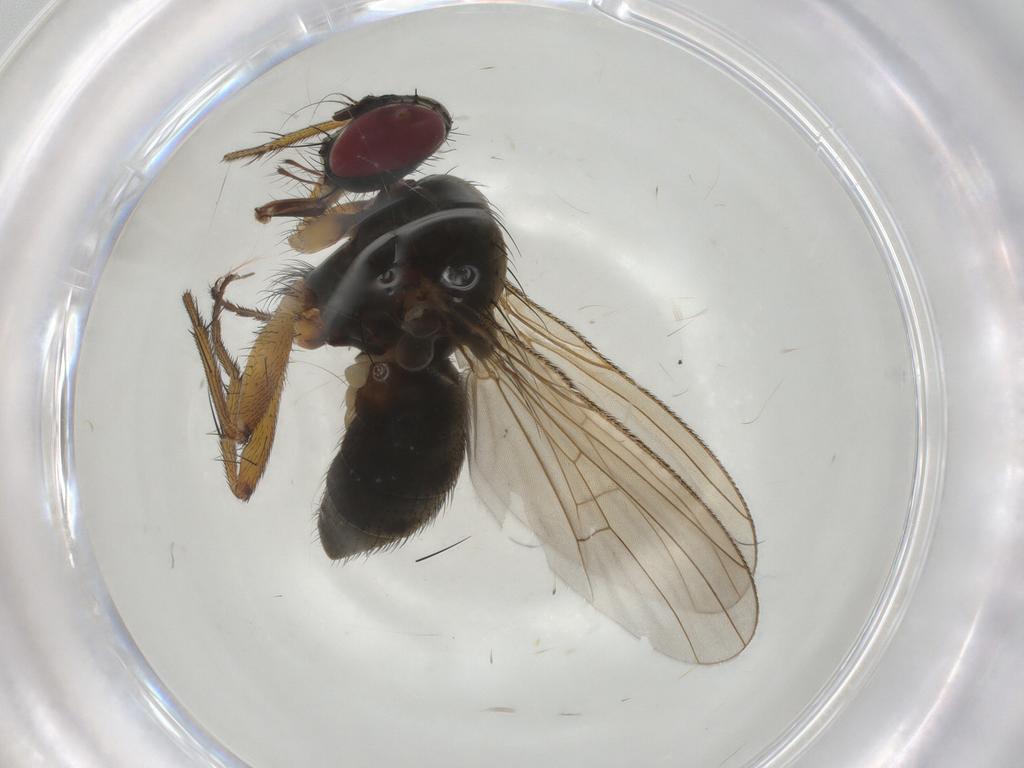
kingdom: Animalia
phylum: Arthropoda
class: Insecta
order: Diptera
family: Muscidae
